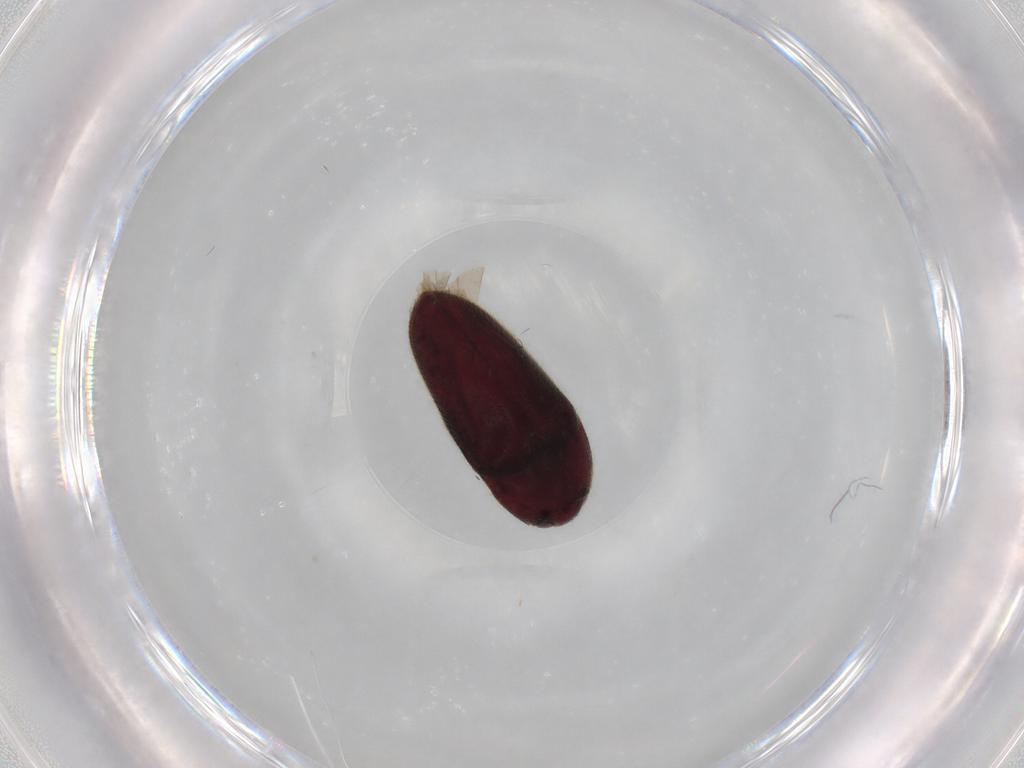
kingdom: Animalia
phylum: Arthropoda
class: Insecta
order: Coleoptera
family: Throscidae
